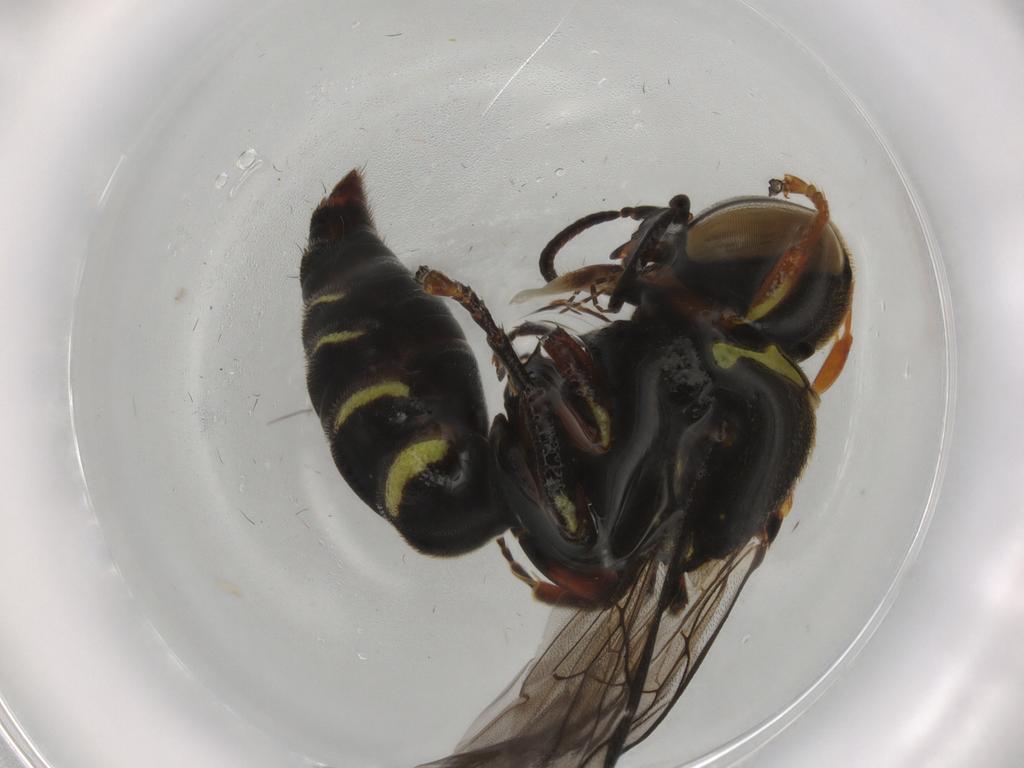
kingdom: Animalia
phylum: Arthropoda
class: Insecta
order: Hymenoptera
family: Crabronidae
